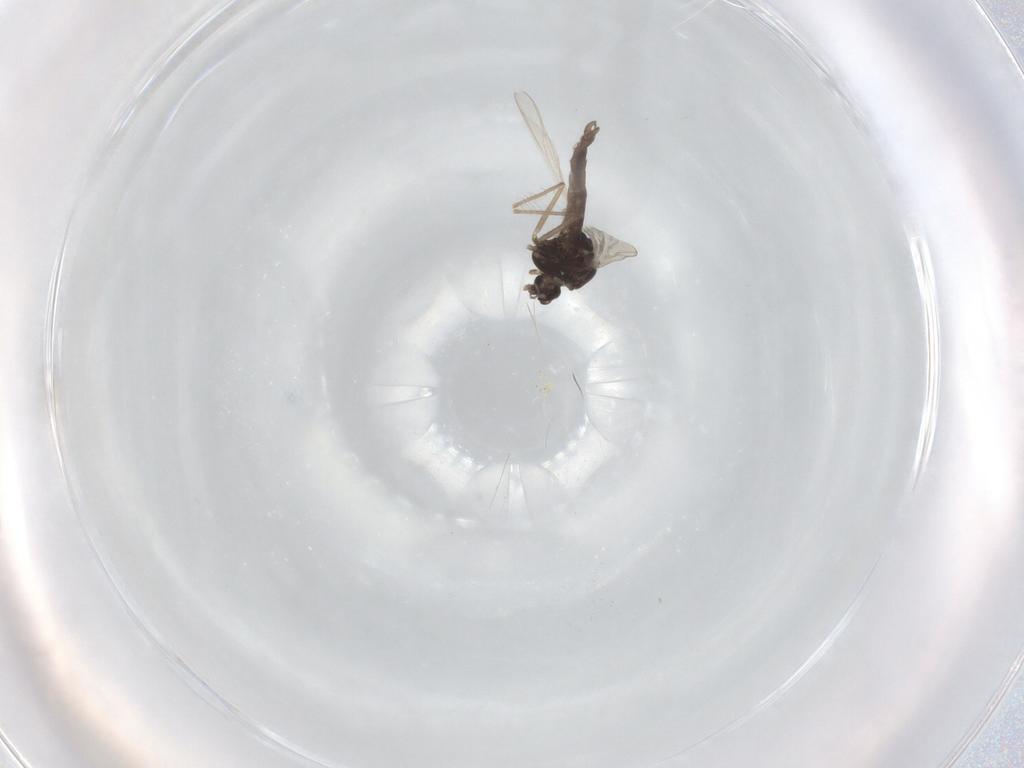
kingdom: Animalia
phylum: Arthropoda
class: Insecta
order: Diptera
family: Chironomidae
